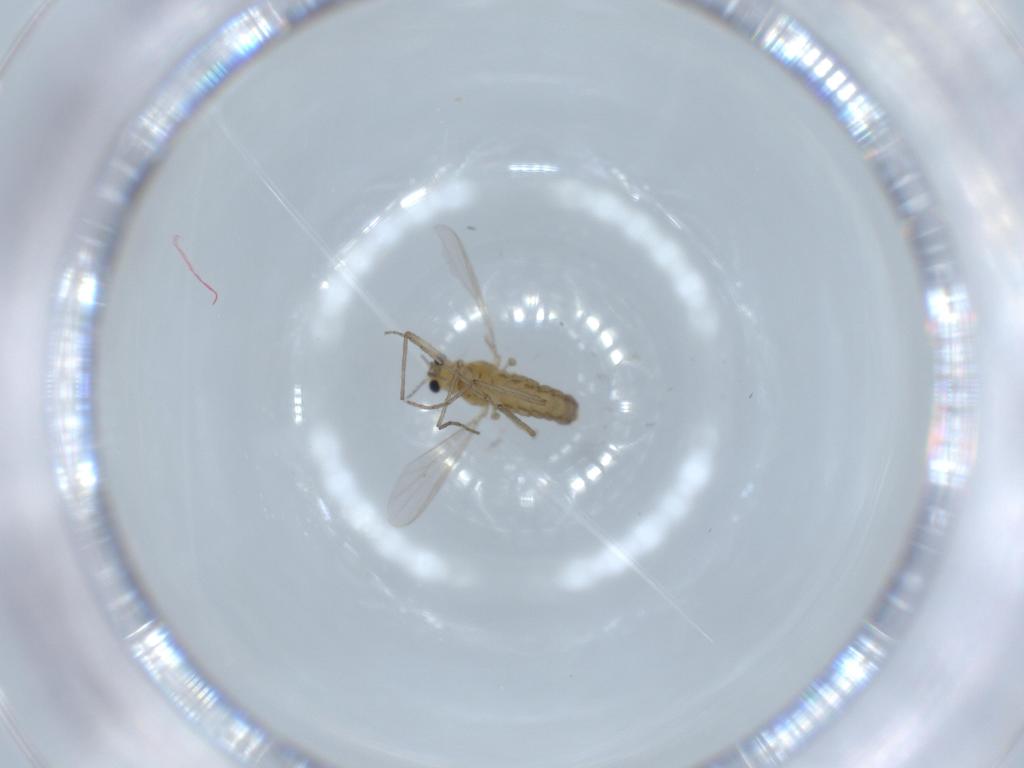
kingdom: Animalia
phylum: Arthropoda
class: Insecta
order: Diptera
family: Chironomidae
